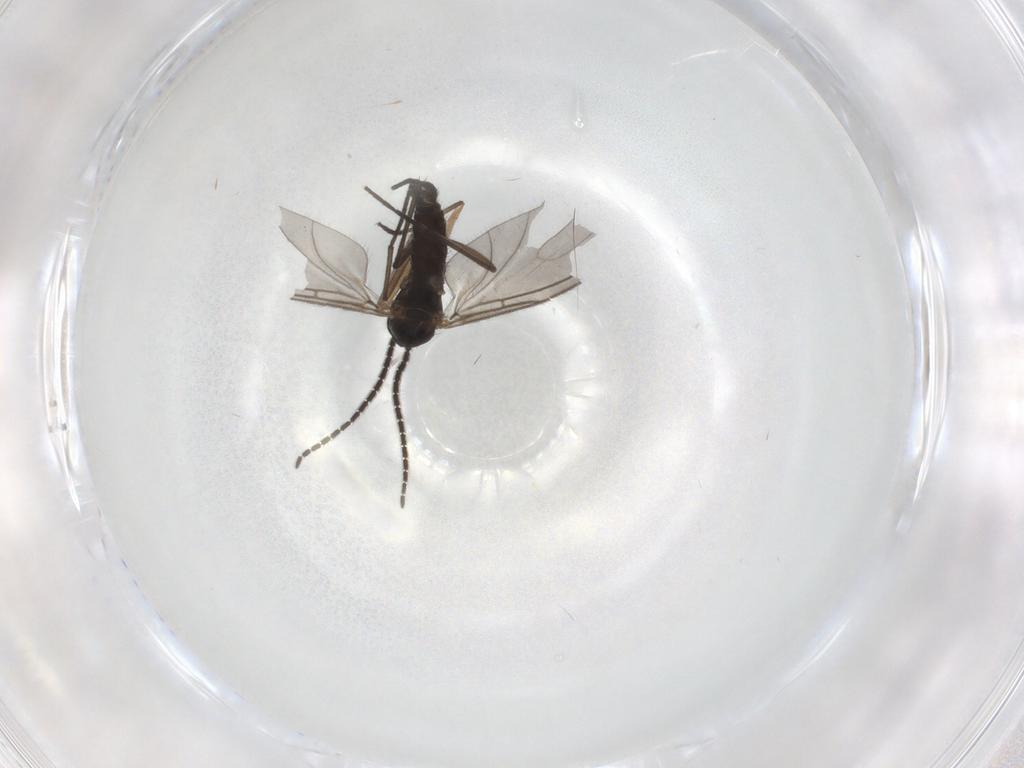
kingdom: Animalia
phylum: Arthropoda
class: Insecta
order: Diptera
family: Sciaridae
